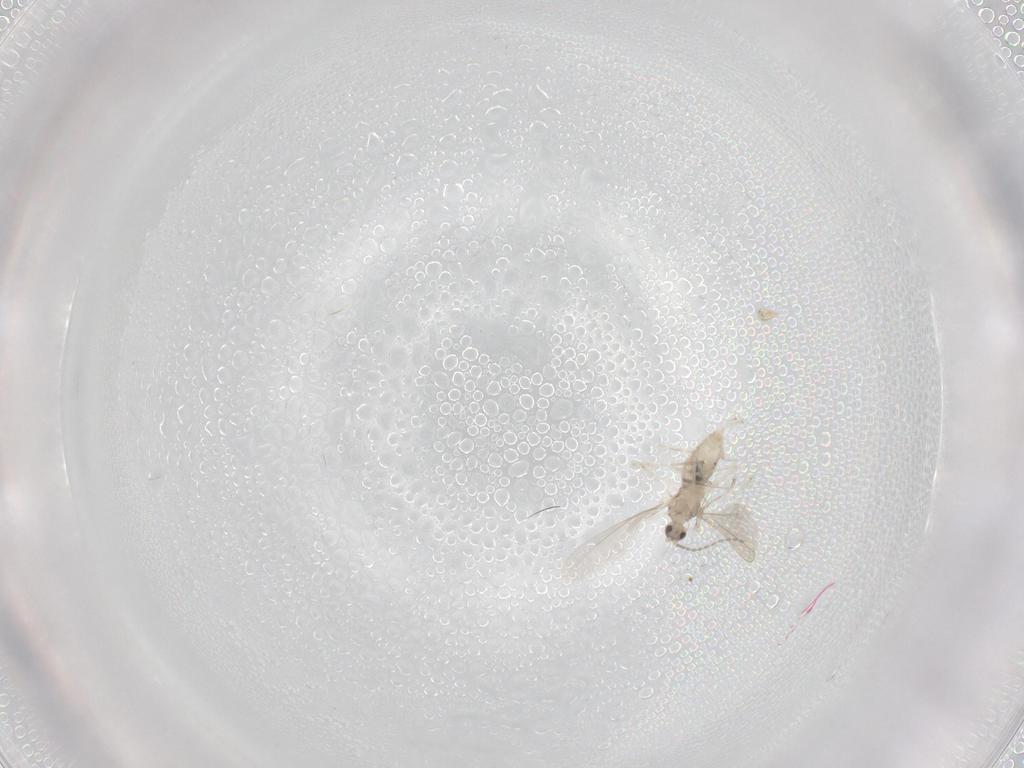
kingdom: Animalia
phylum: Arthropoda
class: Insecta
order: Diptera
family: Cecidomyiidae
